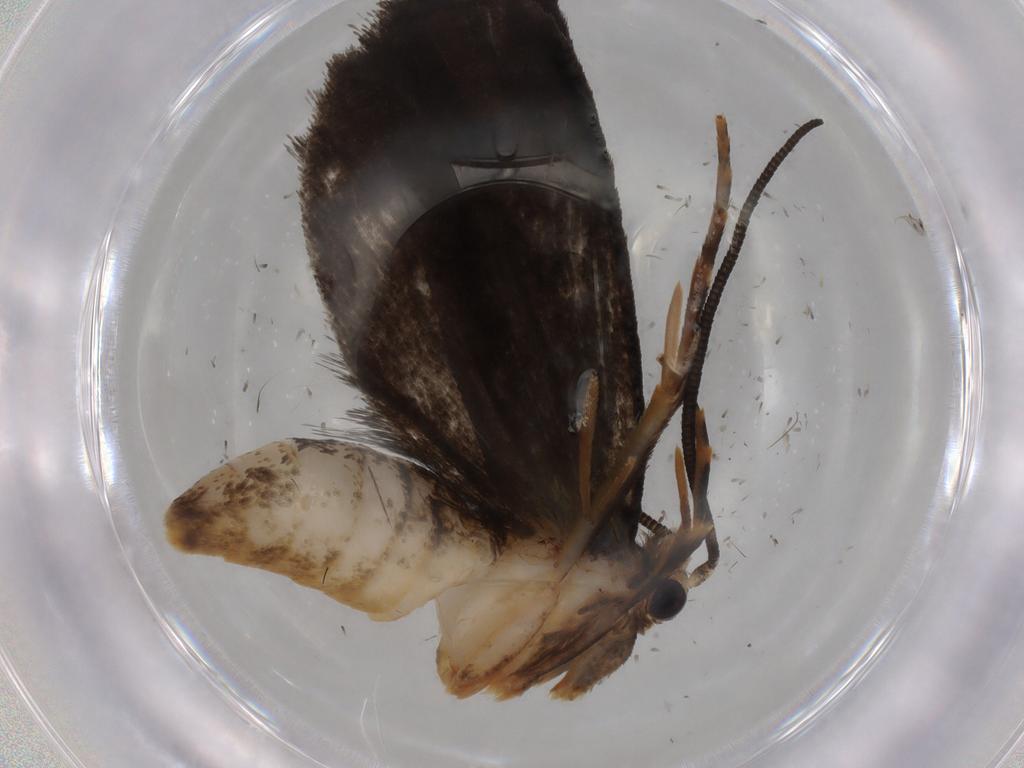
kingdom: Animalia
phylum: Arthropoda
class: Insecta
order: Lepidoptera
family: Tineidae
